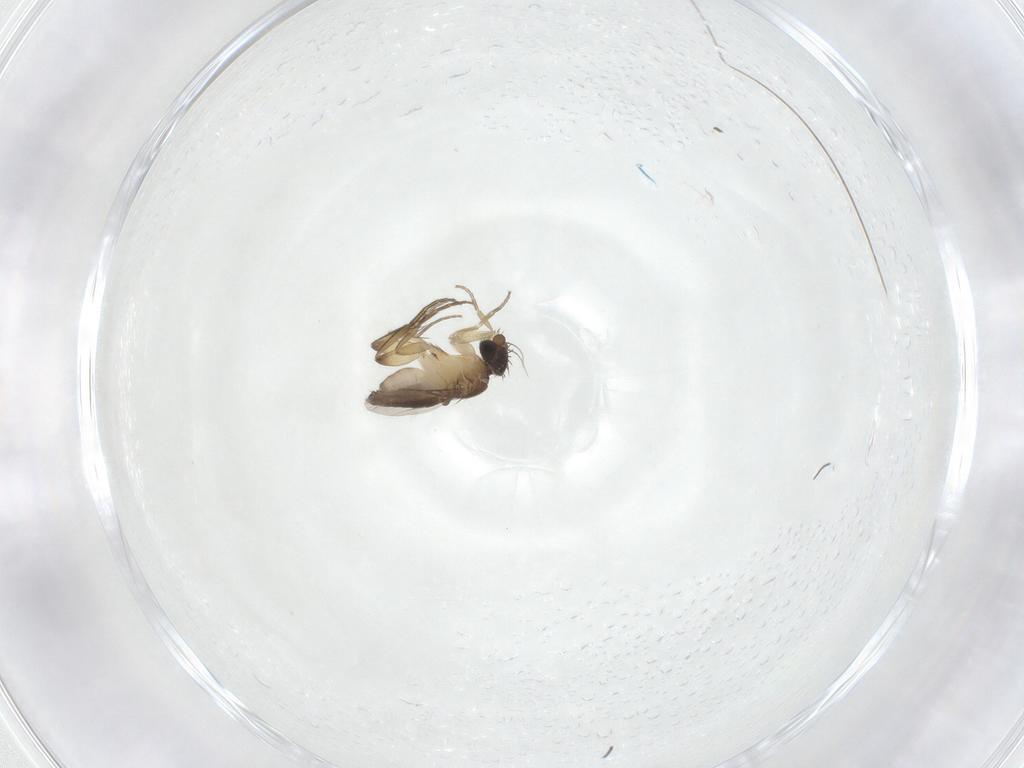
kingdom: Animalia
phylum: Arthropoda
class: Insecta
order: Diptera
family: Phoridae
